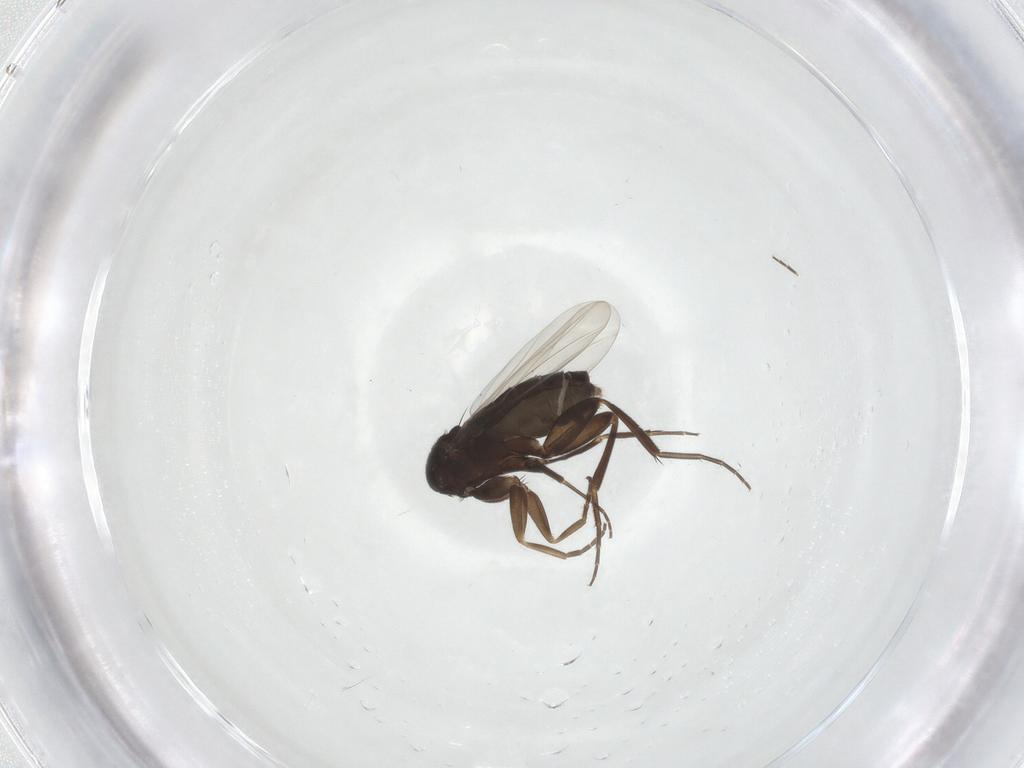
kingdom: Animalia
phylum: Arthropoda
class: Insecta
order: Diptera
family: Phoridae
